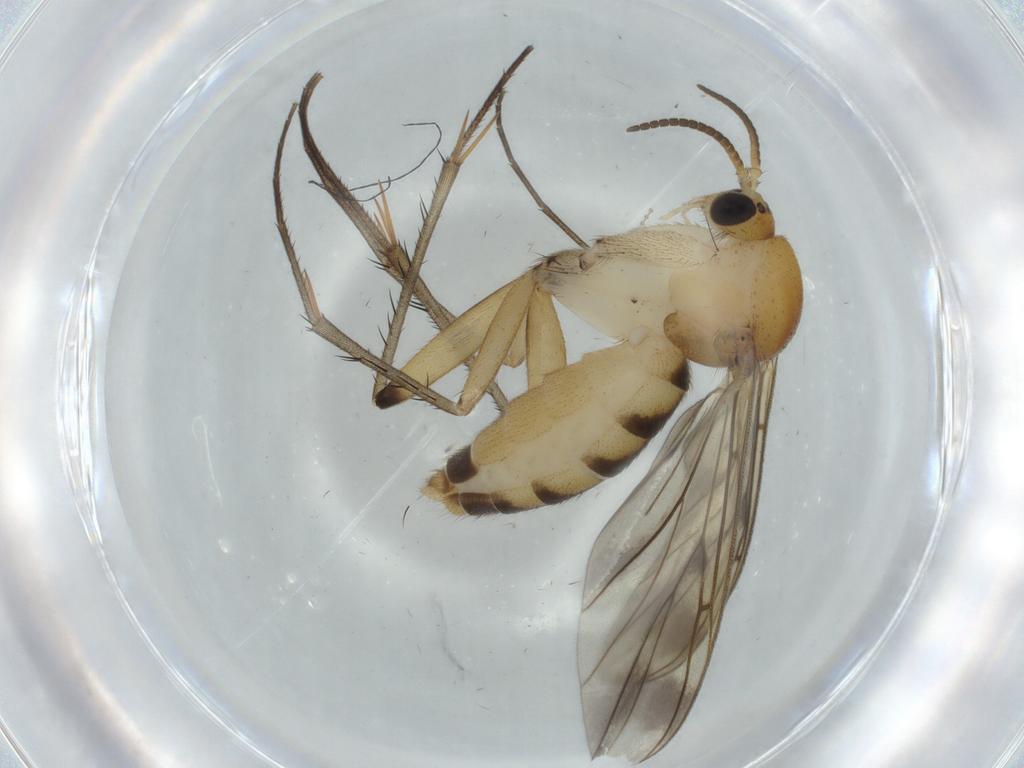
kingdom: Animalia
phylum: Arthropoda
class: Insecta
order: Diptera
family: Mycetophilidae
